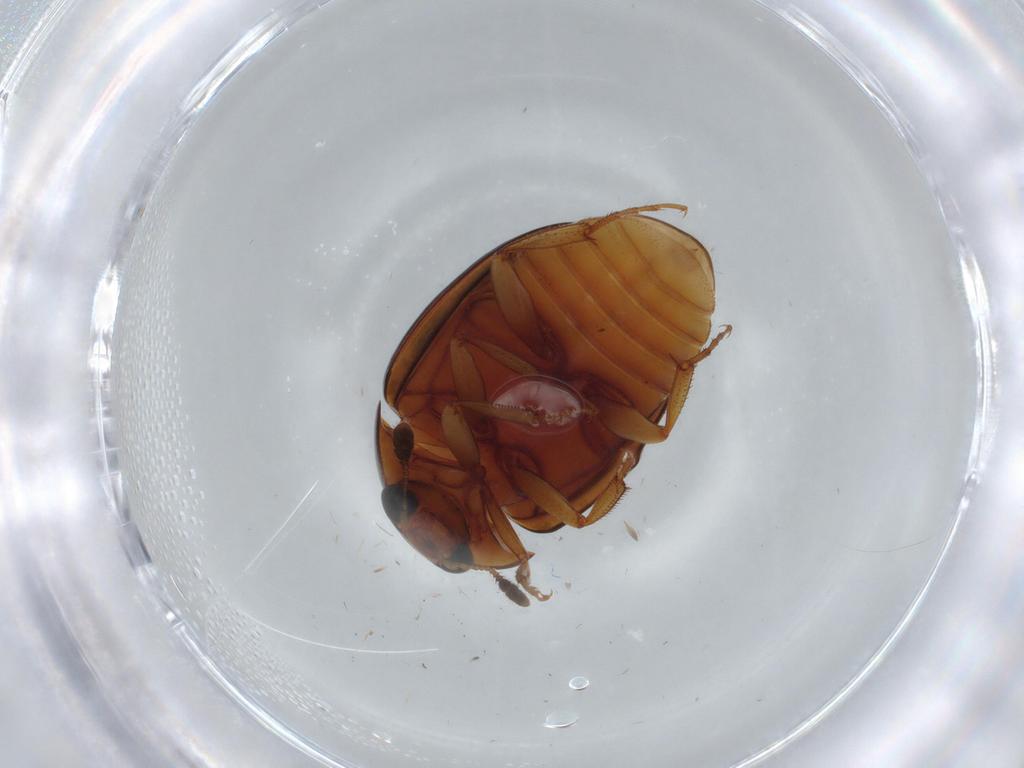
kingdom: Animalia
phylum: Arthropoda
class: Insecta
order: Coleoptera
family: Nitidulidae
